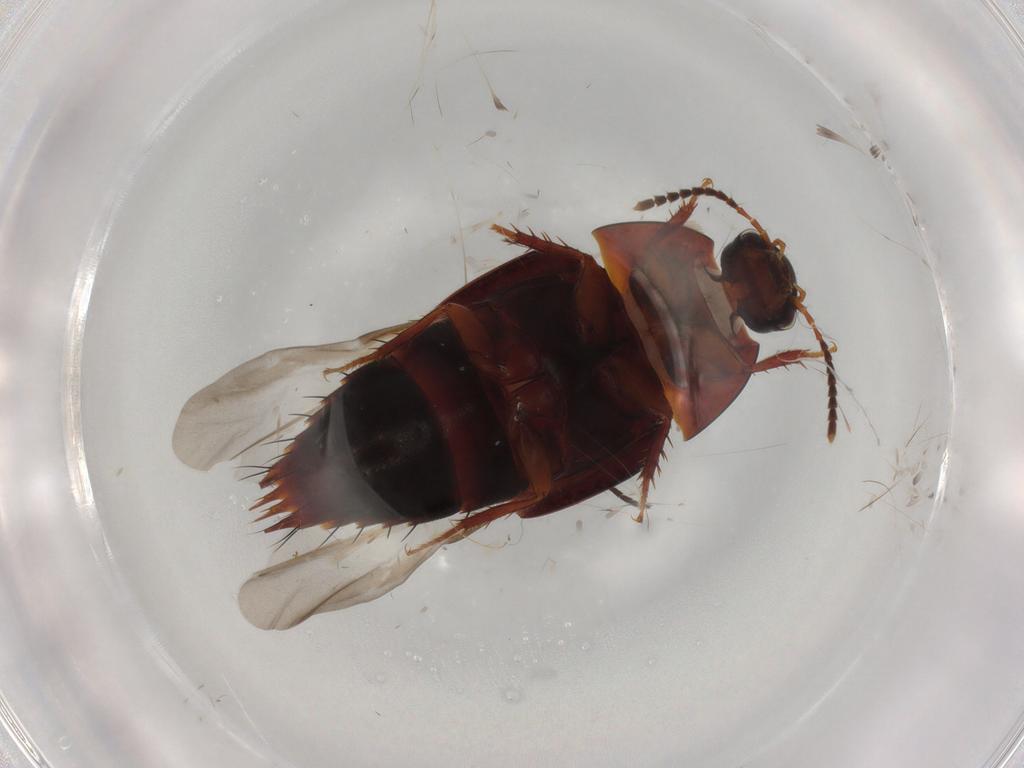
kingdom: Animalia
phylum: Arthropoda
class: Insecta
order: Coleoptera
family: Staphylinidae
